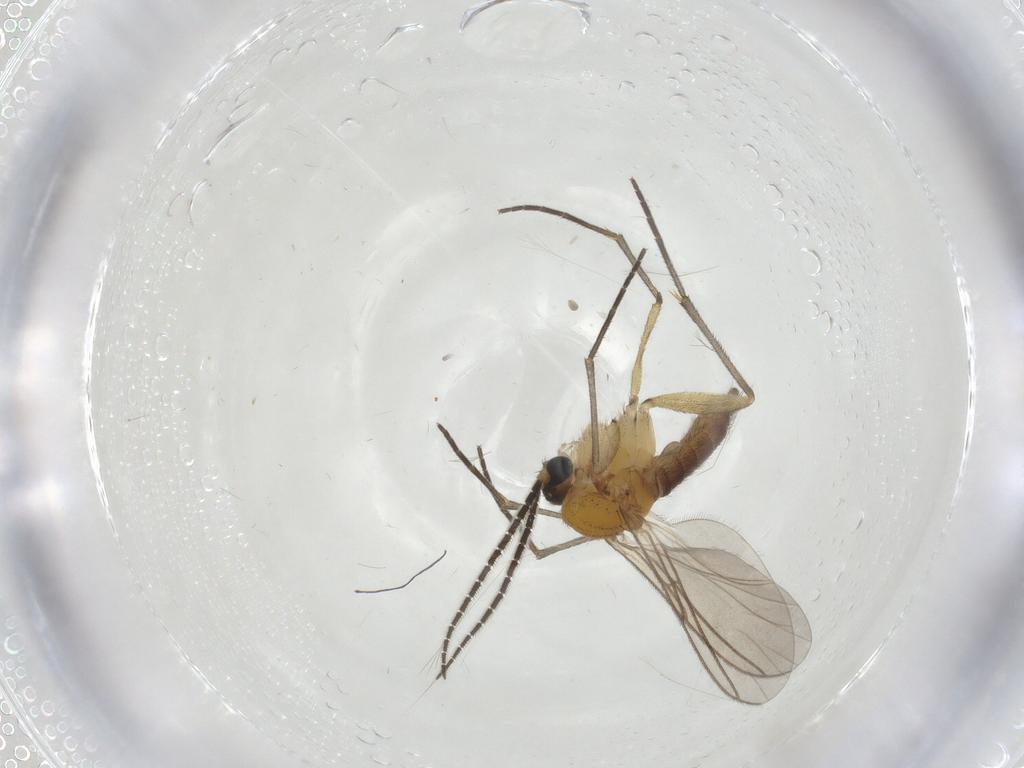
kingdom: Animalia
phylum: Arthropoda
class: Insecta
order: Diptera
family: Sciaridae
